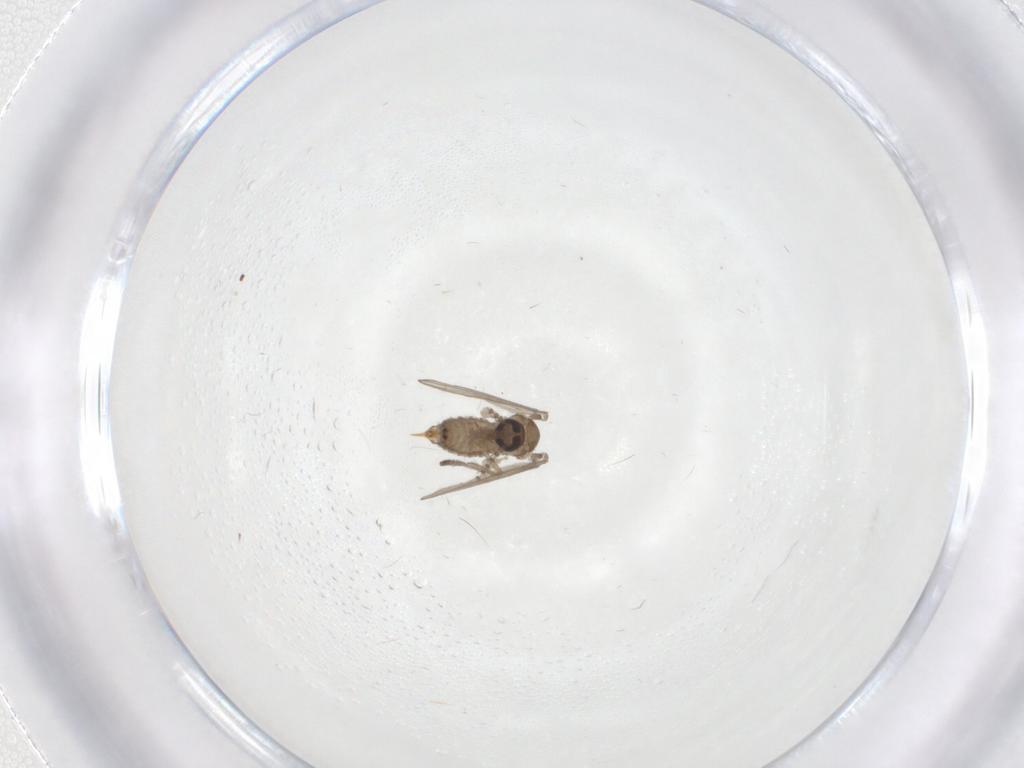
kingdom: Animalia
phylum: Arthropoda
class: Insecta
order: Diptera
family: Psychodidae
